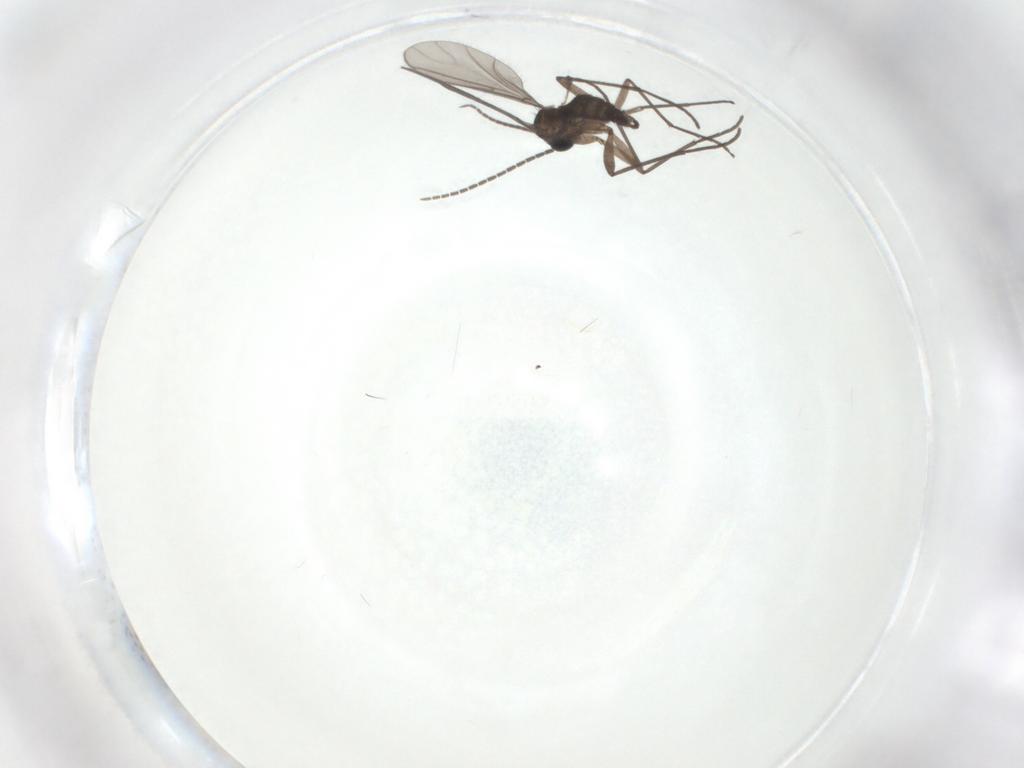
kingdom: Animalia
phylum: Arthropoda
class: Insecta
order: Diptera
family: Sciaridae
